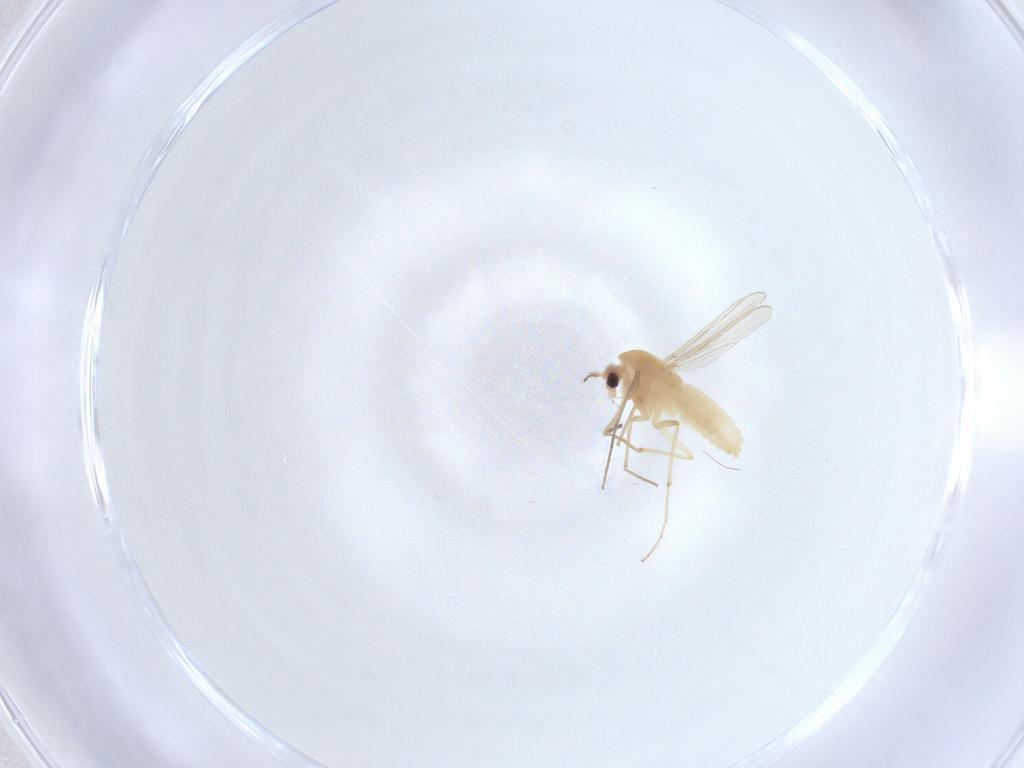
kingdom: Animalia
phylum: Arthropoda
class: Insecta
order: Diptera
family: Chironomidae
